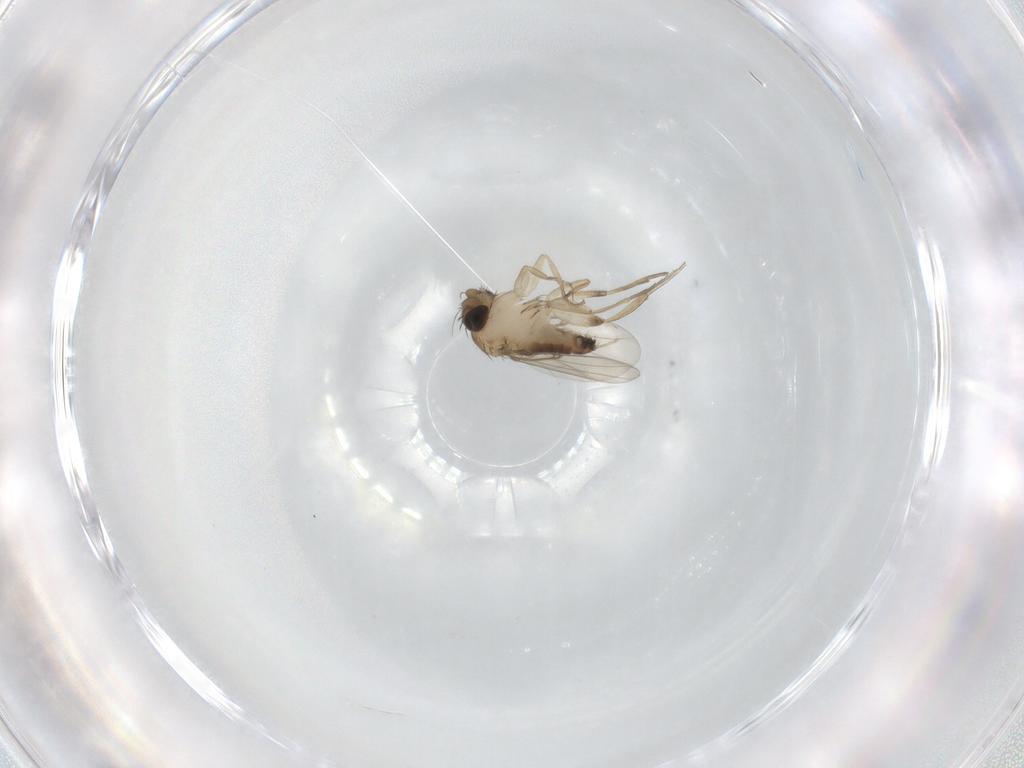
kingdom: Animalia
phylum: Arthropoda
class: Insecta
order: Diptera
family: Phoridae
